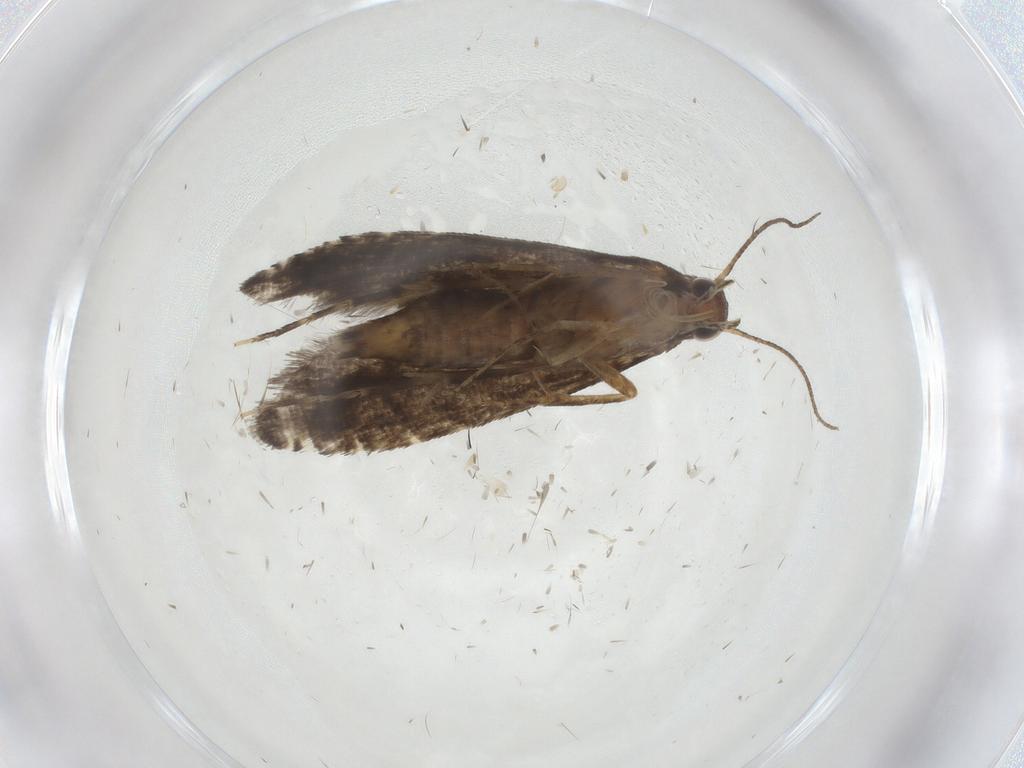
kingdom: Animalia
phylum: Arthropoda
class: Insecta
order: Lepidoptera
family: Glyphipterigidae
